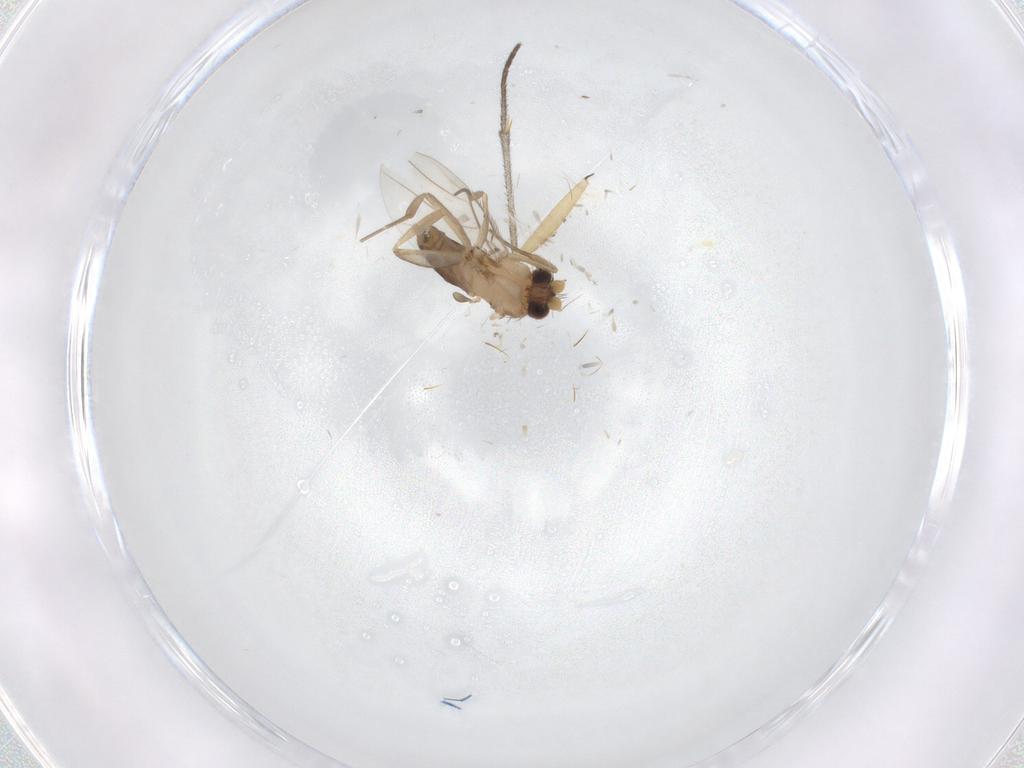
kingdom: Animalia
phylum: Arthropoda
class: Insecta
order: Diptera
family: Sciaridae
